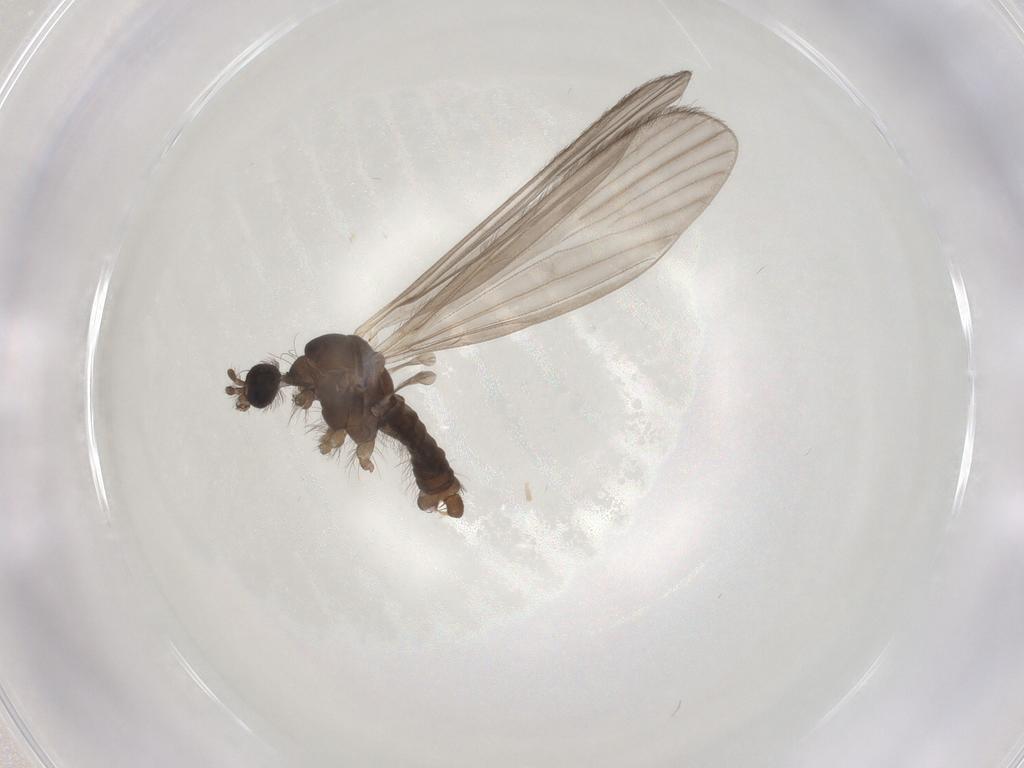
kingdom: Animalia
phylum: Arthropoda
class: Insecta
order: Diptera
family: Limoniidae
